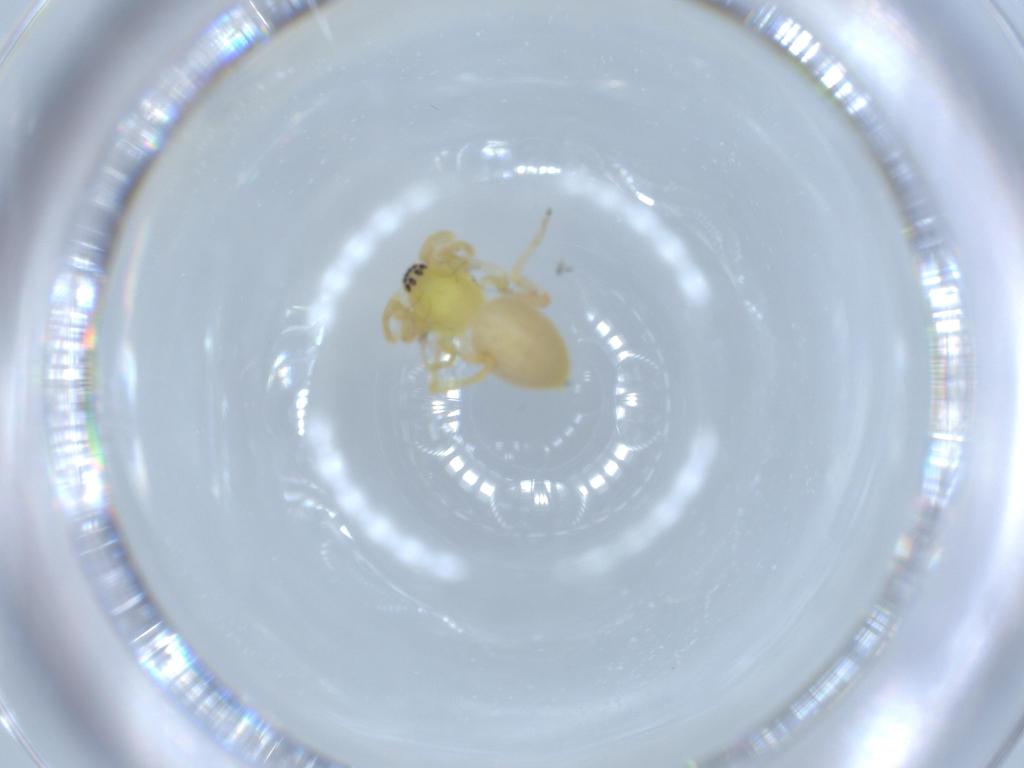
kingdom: Animalia
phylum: Arthropoda
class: Arachnida
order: Araneae
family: Anyphaenidae
